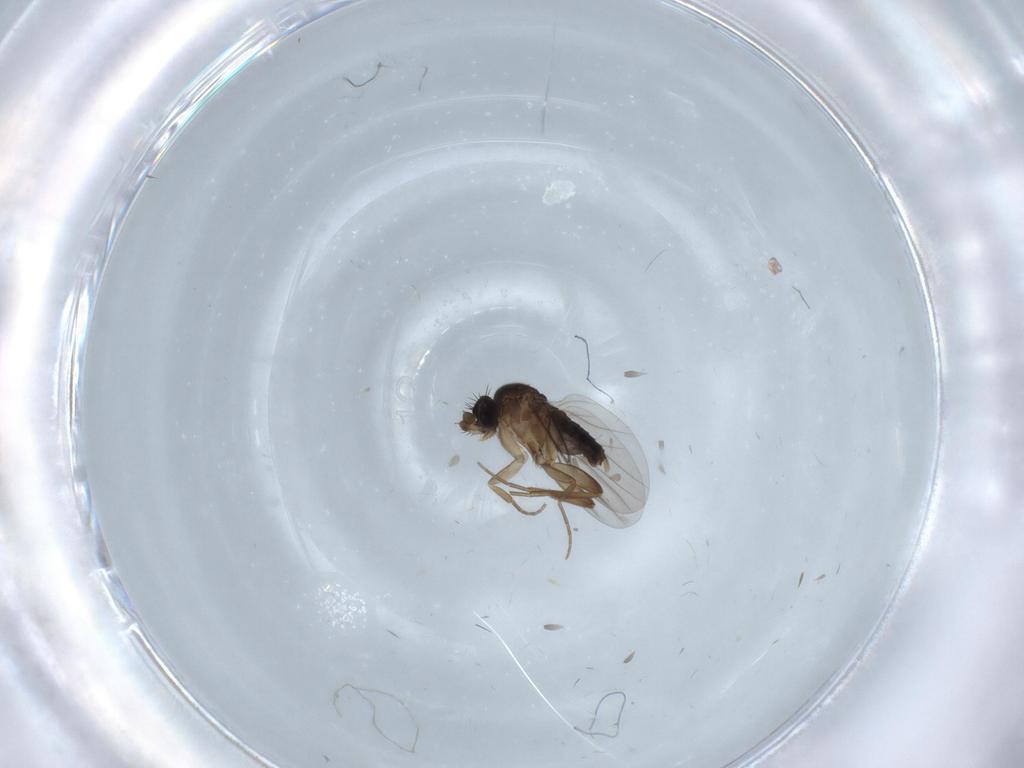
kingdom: Animalia
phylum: Arthropoda
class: Insecta
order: Diptera
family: Phoridae
